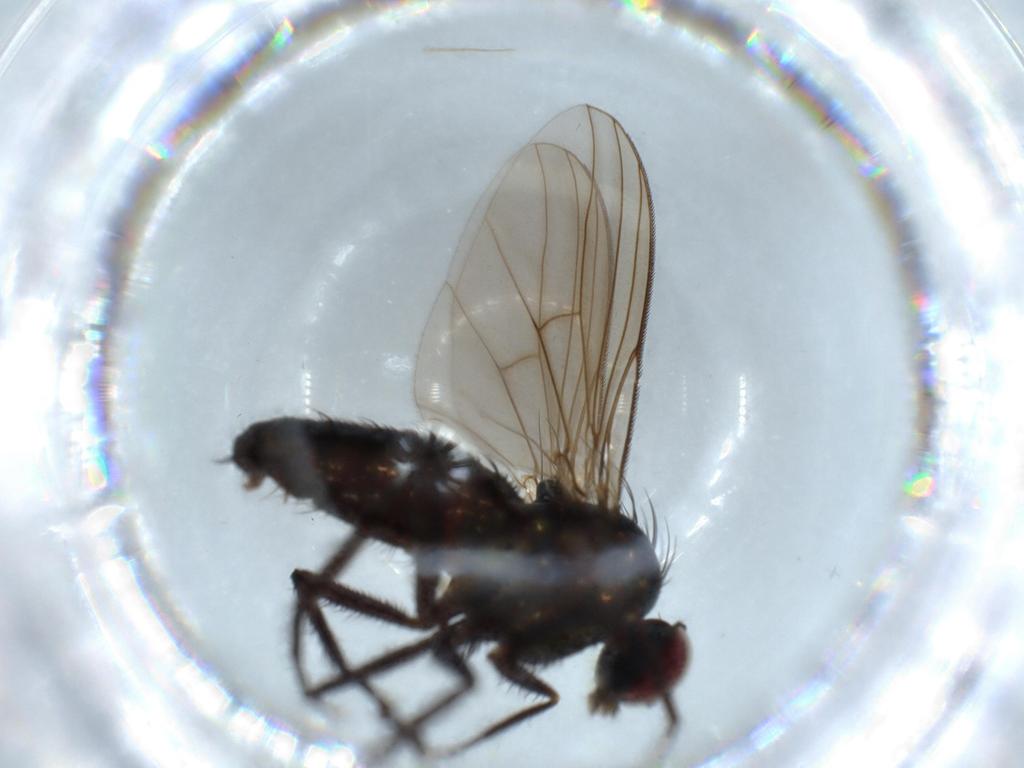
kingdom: Animalia
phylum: Arthropoda
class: Insecta
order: Diptera
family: Dolichopodidae
